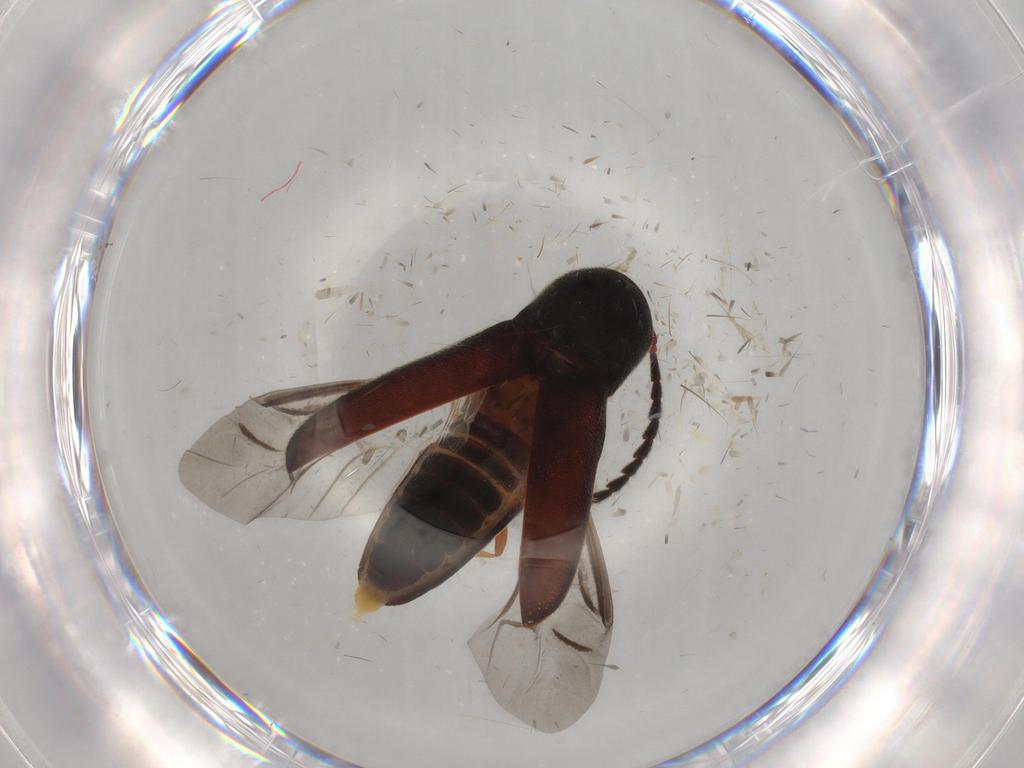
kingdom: Animalia
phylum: Arthropoda
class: Insecta
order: Coleoptera
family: Eucnemidae
